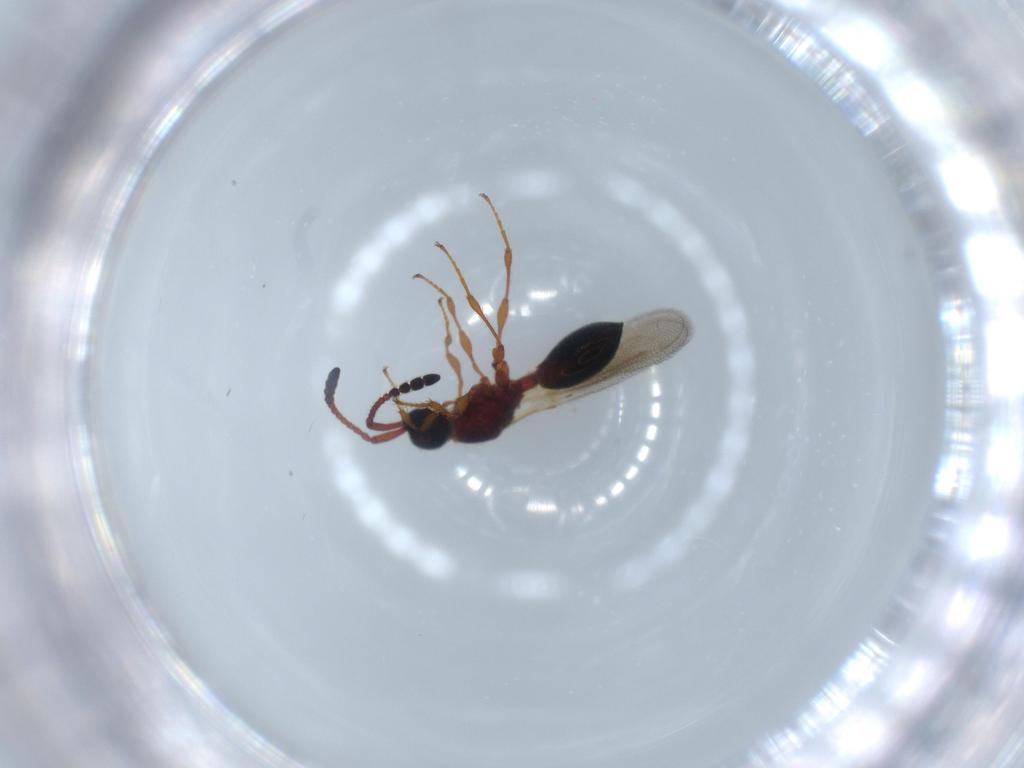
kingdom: Animalia
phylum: Arthropoda
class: Insecta
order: Hymenoptera
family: Diapriidae
